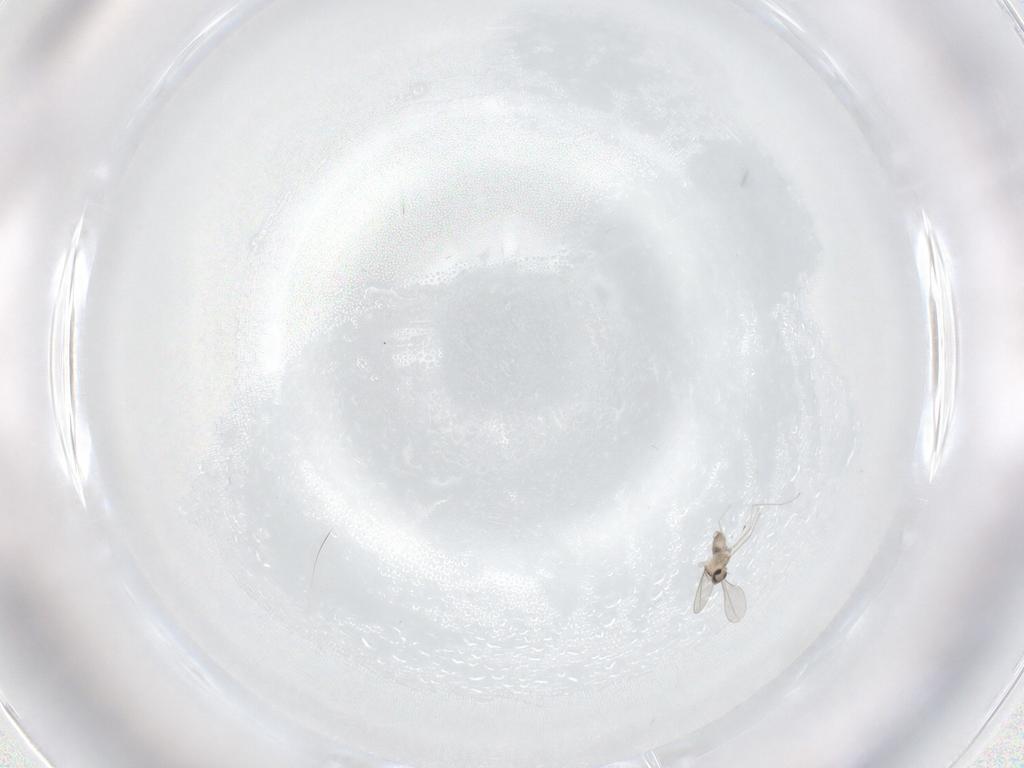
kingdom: Animalia
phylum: Arthropoda
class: Insecta
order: Diptera
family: Cecidomyiidae
